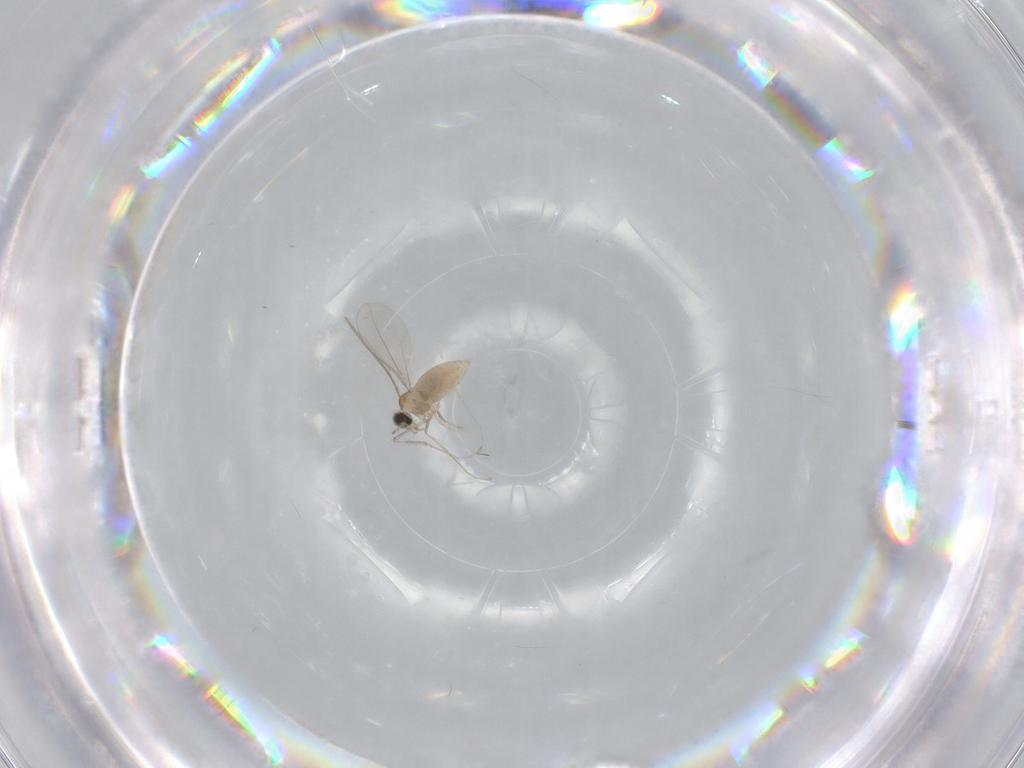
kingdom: Animalia
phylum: Arthropoda
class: Insecta
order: Diptera
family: Cecidomyiidae
